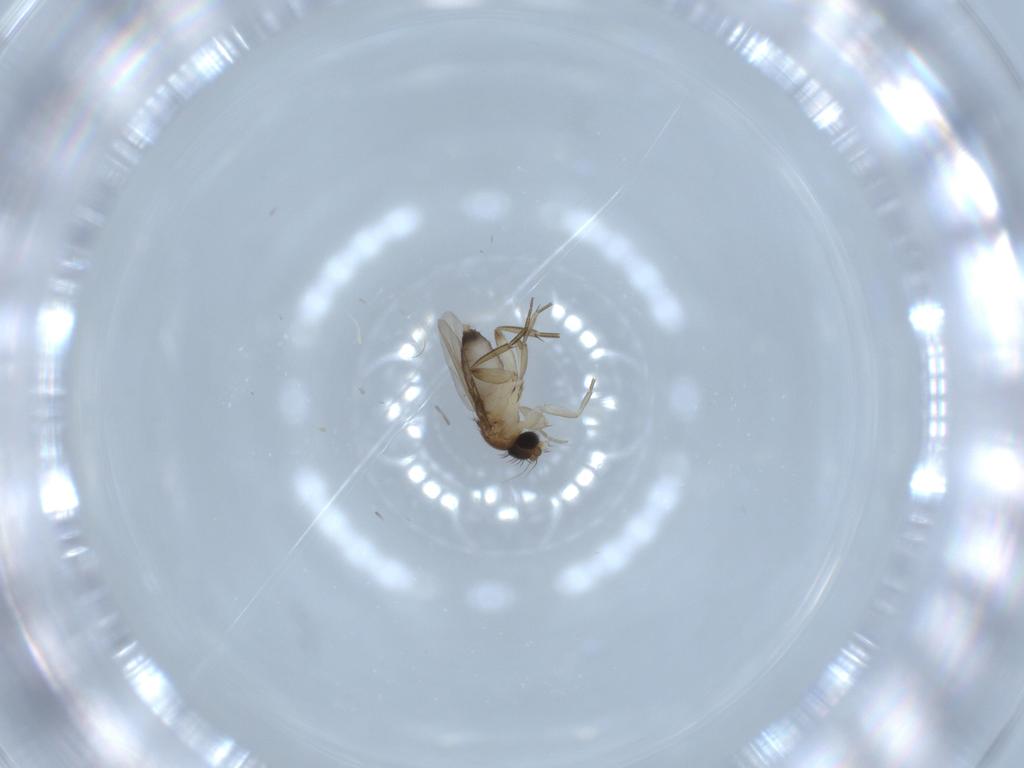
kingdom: Animalia
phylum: Arthropoda
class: Insecta
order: Diptera
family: Phoridae
